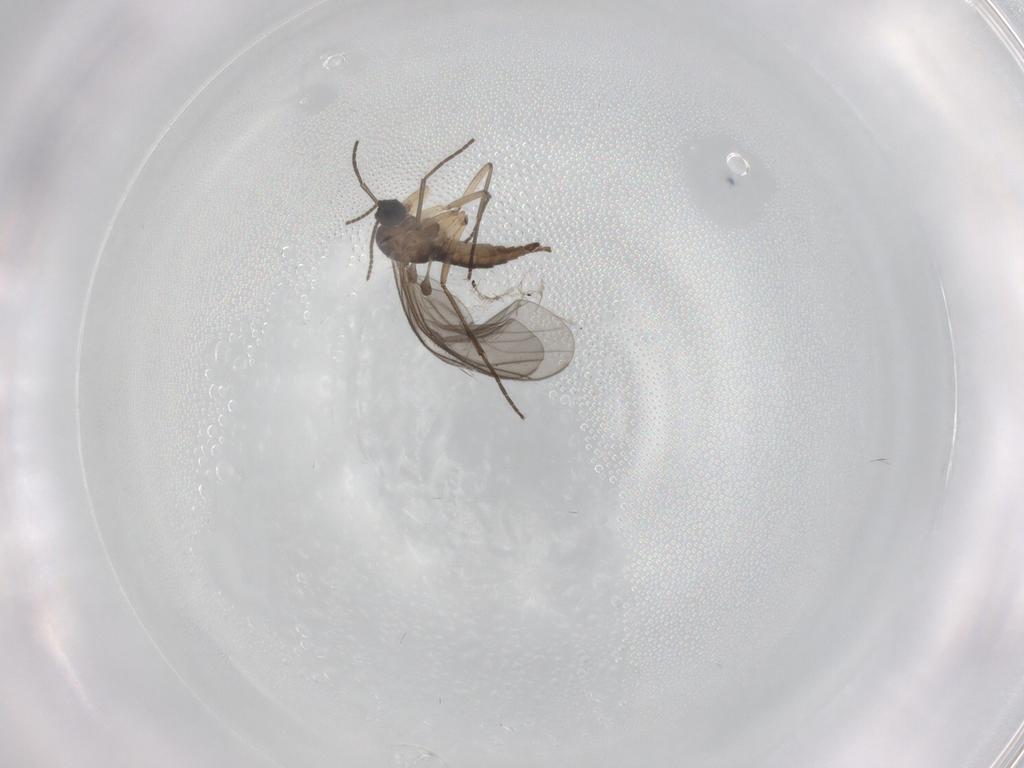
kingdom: Animalia
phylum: Arthropoda
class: Insecta
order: Diptera
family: Sciaridae
